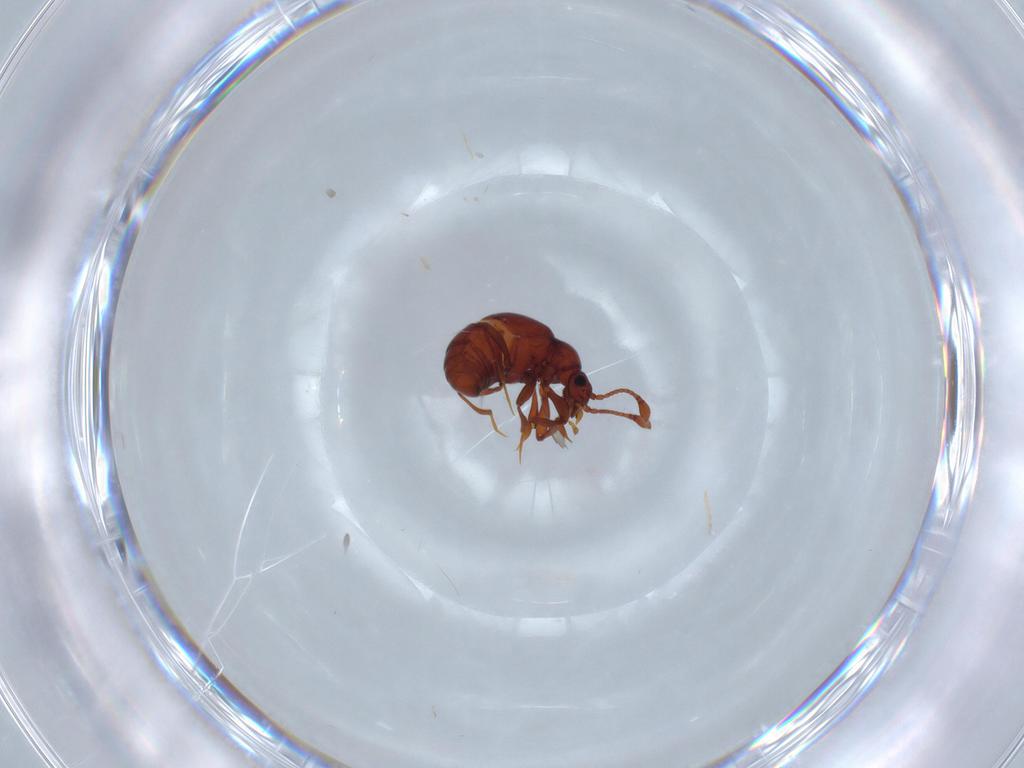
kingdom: Animalia
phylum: Arthropoda
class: Insecta
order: Coleoptera
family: Staphylinidae
